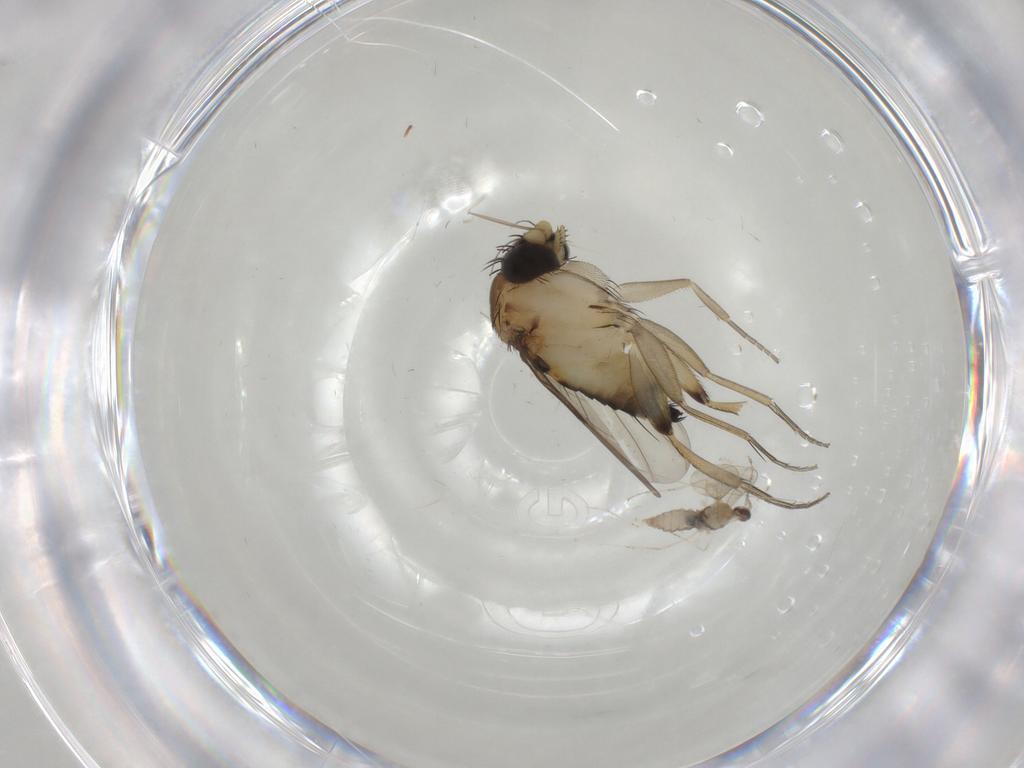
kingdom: Animalia
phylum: Arthropoda
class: Insecta
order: Diptera
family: Phoridae
